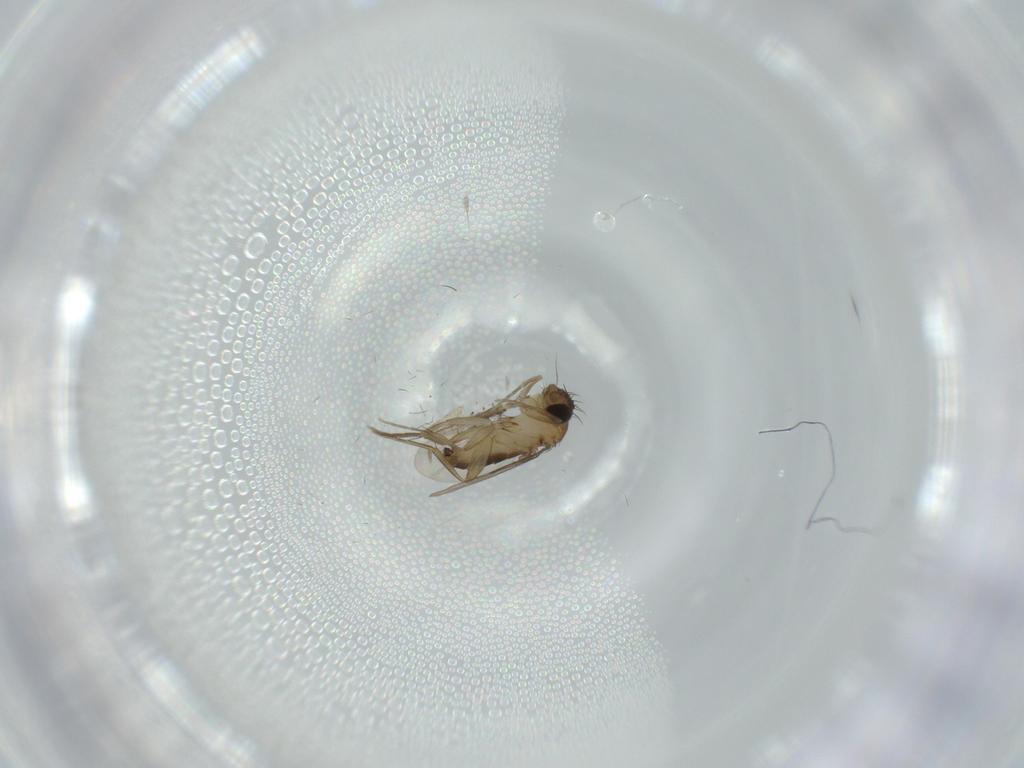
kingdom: Animalia
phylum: Arthropoda
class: Insecta
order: Diptera
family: Psychodidae
